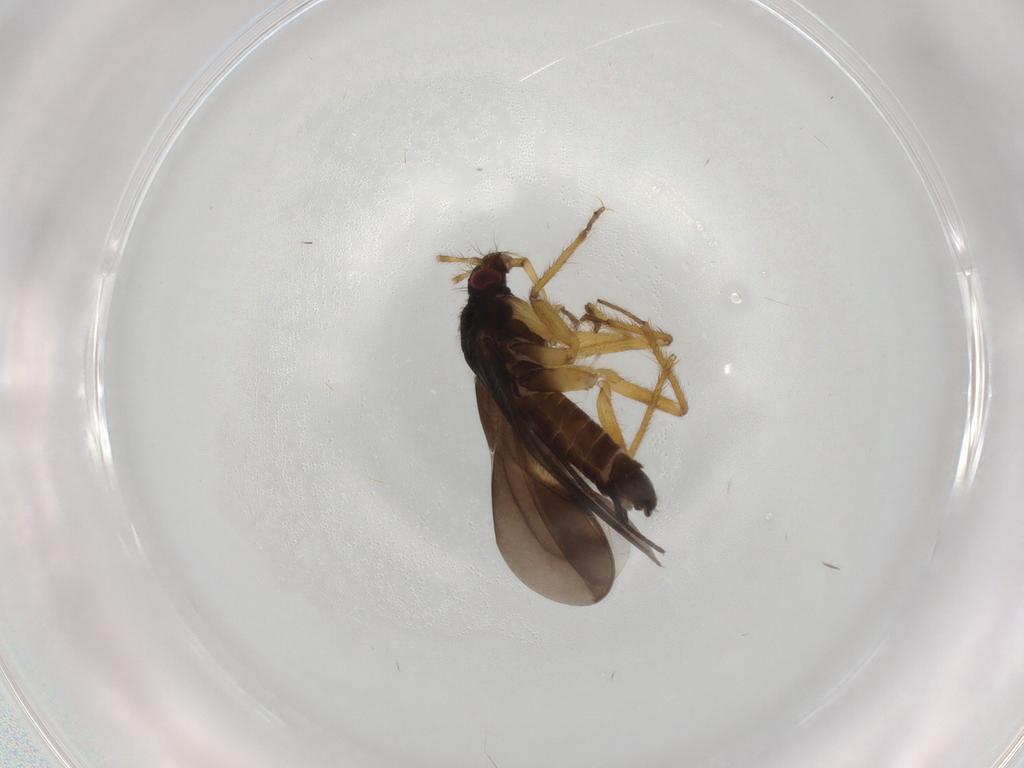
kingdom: Animalia
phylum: Arthropoda
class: Insecta
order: Hemiptera
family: Ceratocombidae
